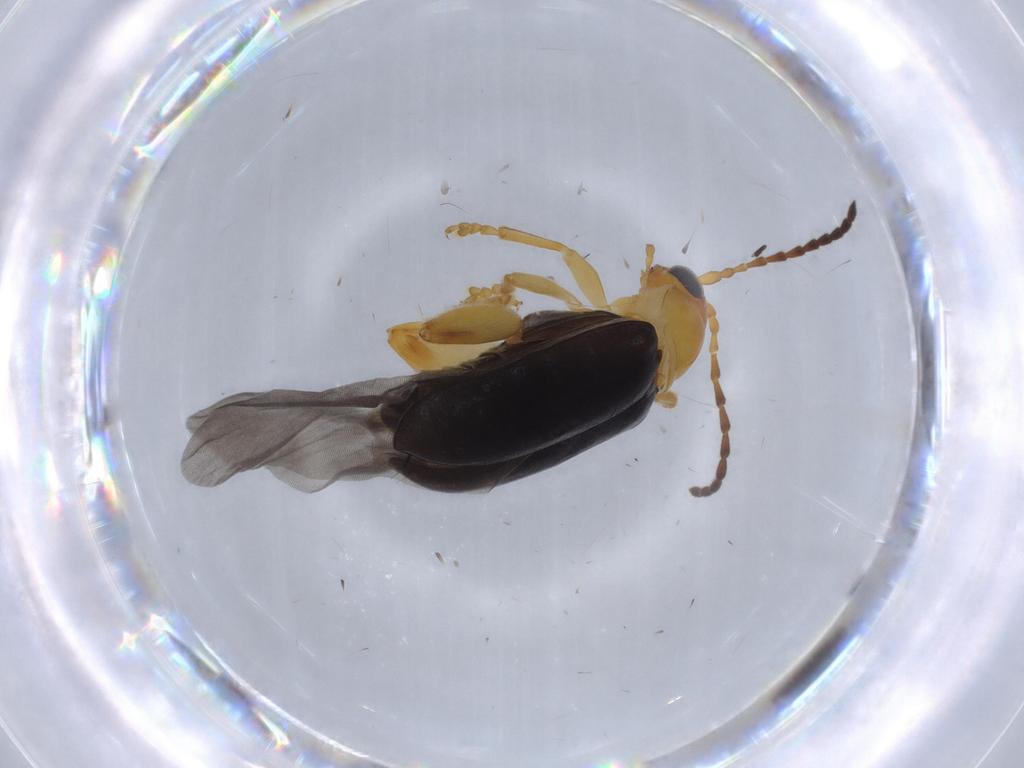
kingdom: Animalia
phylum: Arthropoda
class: Insecta
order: Coleoptera
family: Chrysomelidae
